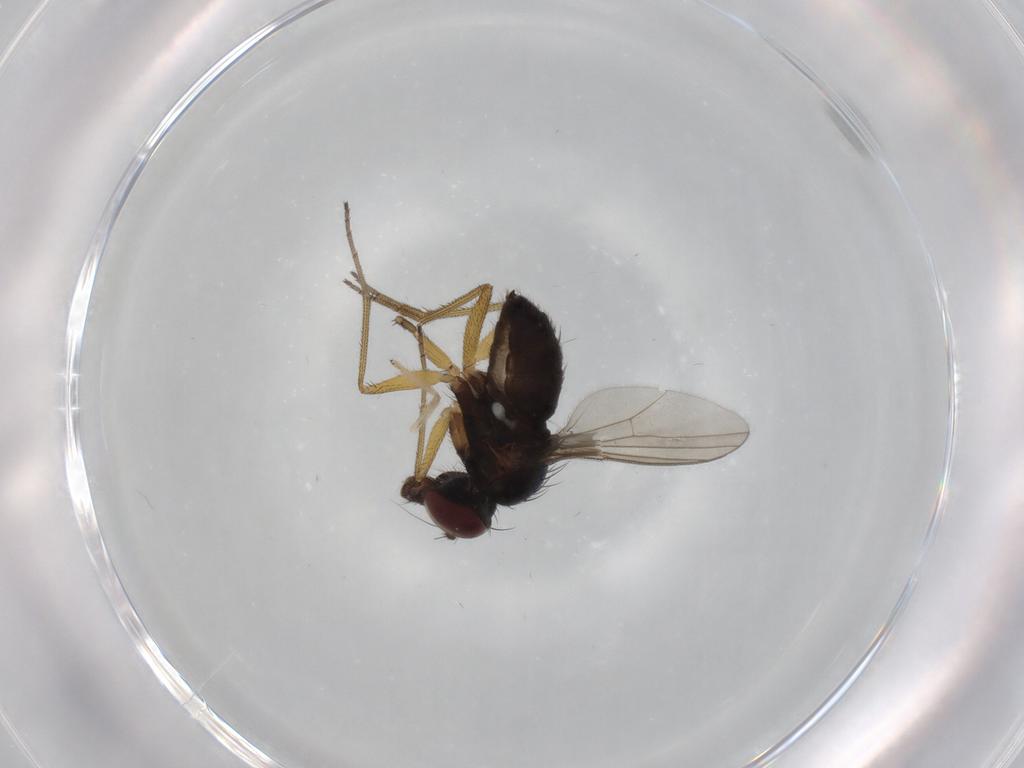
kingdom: Animalia
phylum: Arthropoda
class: Insecta
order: Diptera
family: Dolichopodidae
